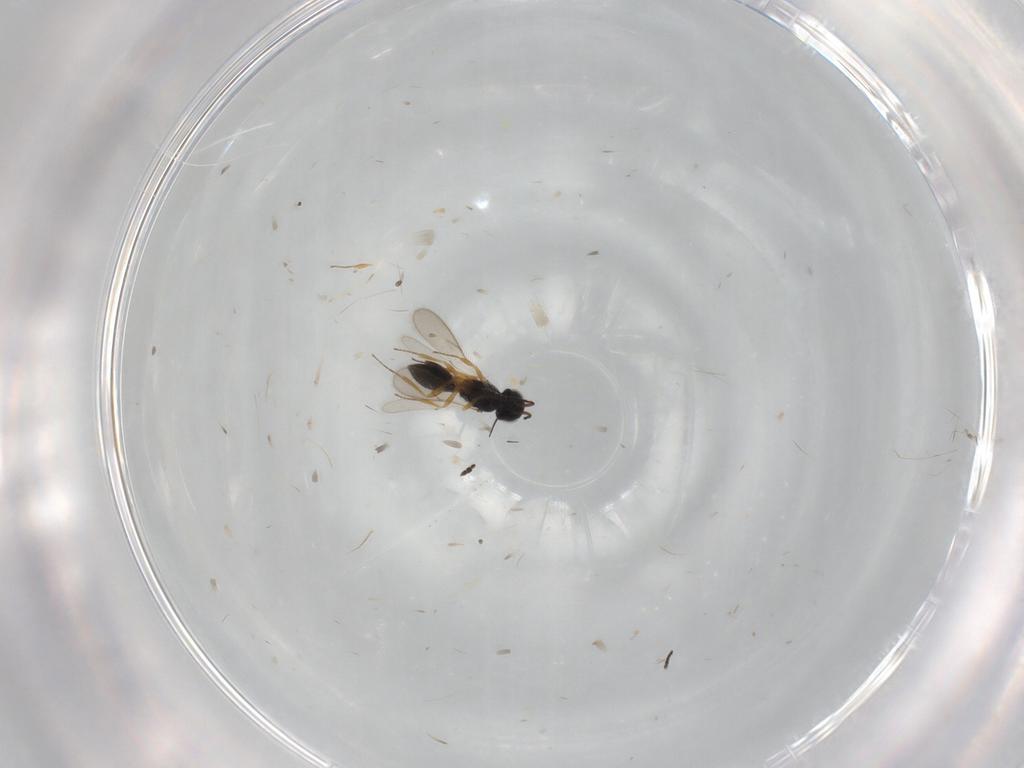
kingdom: Animalia
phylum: Arthropoda
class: Insecta
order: Hymenoptera
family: Scelionidae
